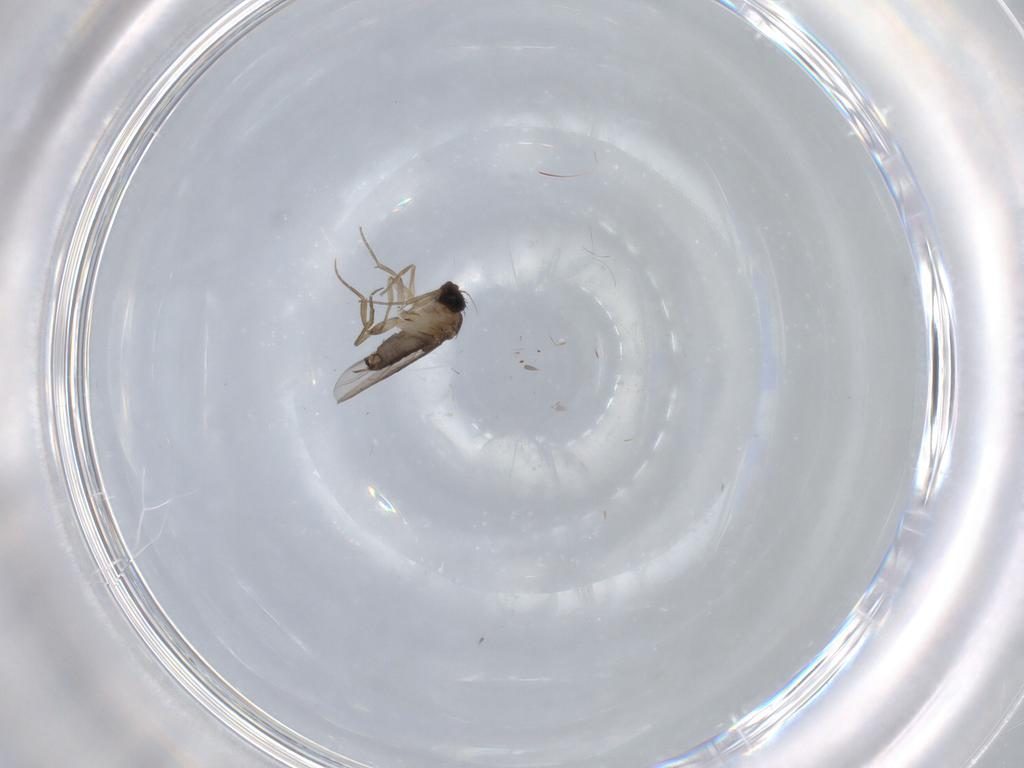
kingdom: Animalia
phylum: Arthropoda
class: Insecta
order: Diptera
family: Phoridae
